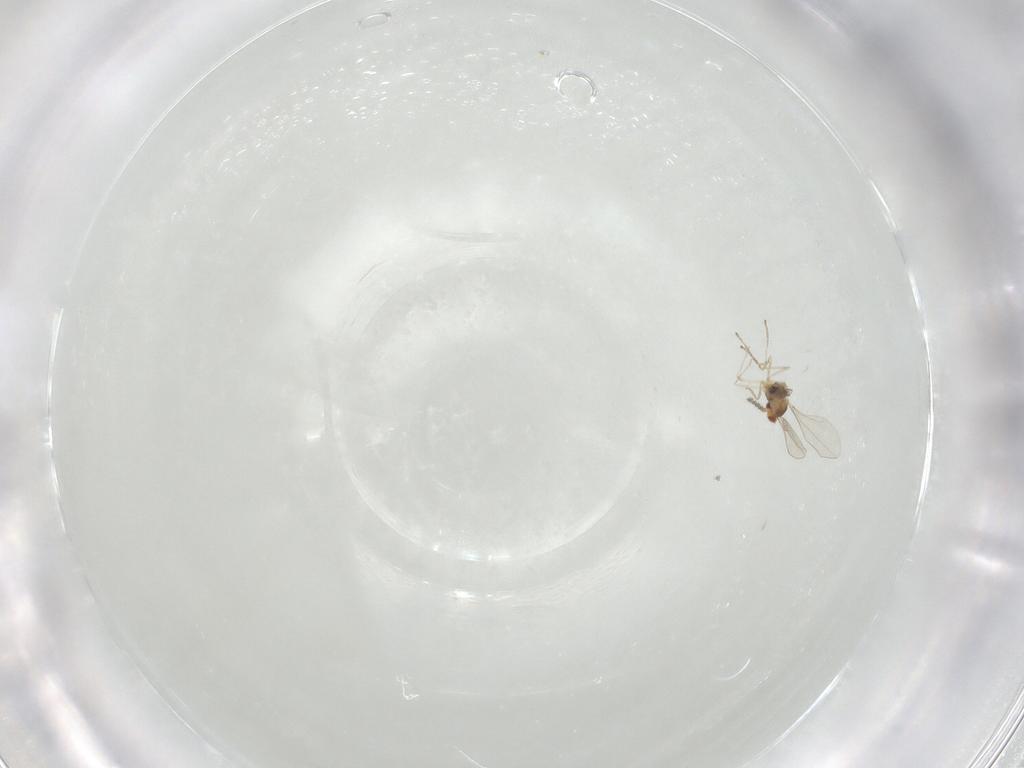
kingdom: Animalia
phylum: Arthropoda
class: Insecta
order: Diptera
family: Cecidomyiidae
